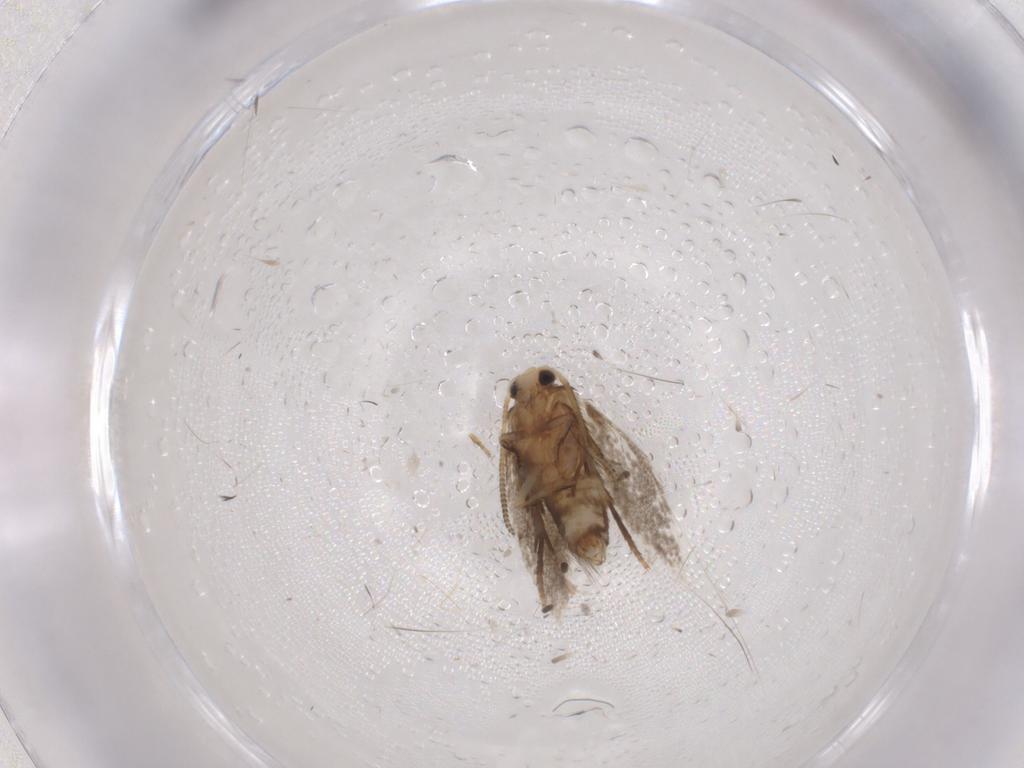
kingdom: Animalia
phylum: Arthropoda
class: Insecta
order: Lepidoptera
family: Nepticulidae
